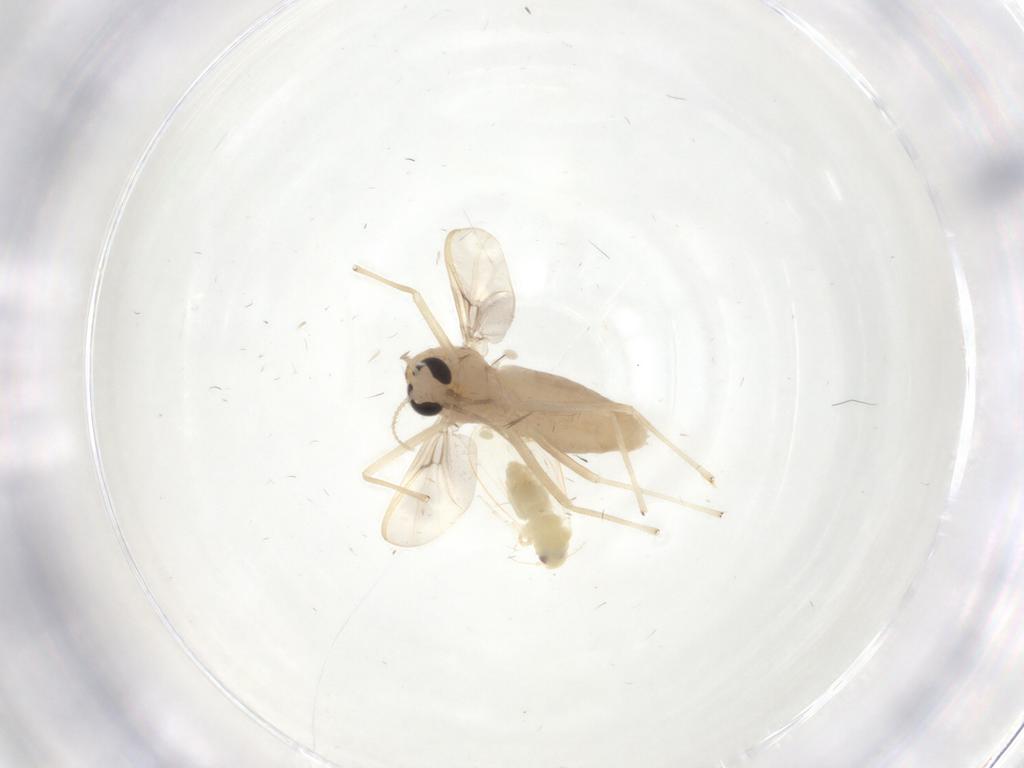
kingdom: Animalia
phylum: Arthropoda
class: Insecta
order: Diptera
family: Chironomidae
